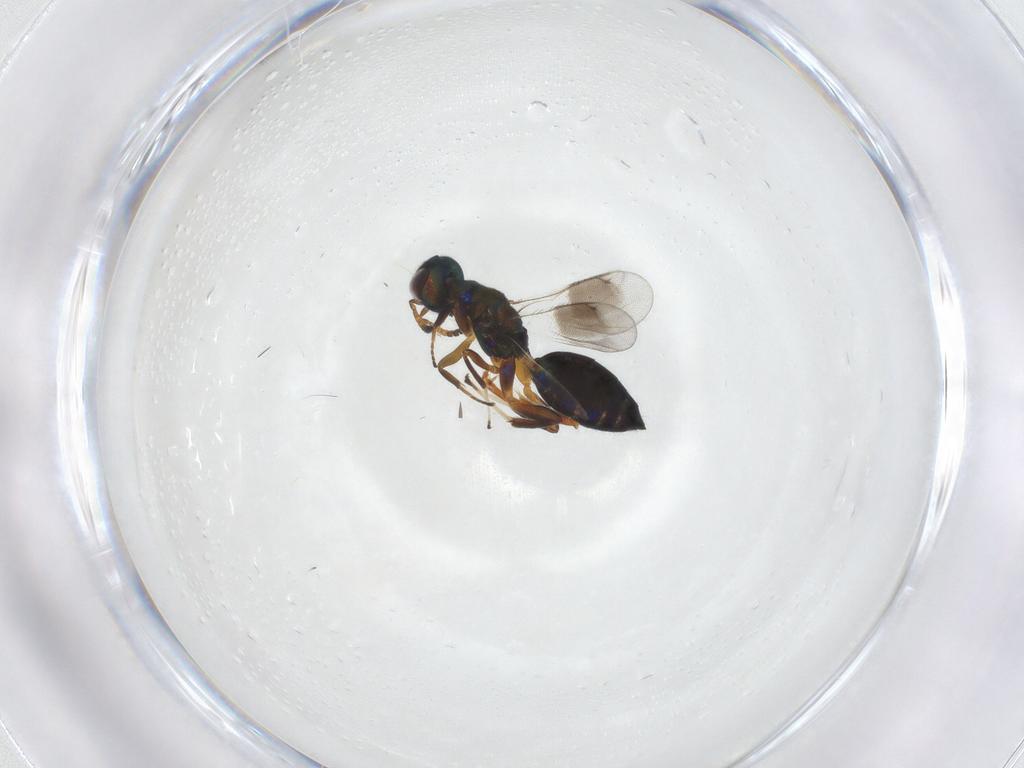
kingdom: Animalia
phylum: Arthropoda
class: Insecta
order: Hymenoptera
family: Cleonyminae
